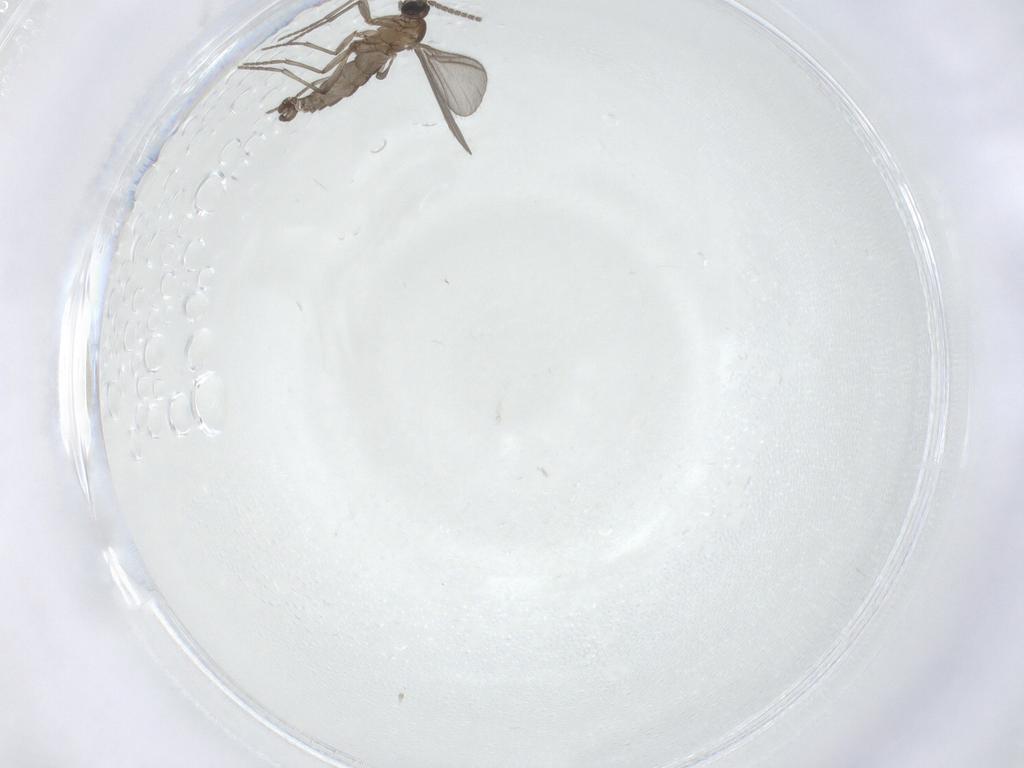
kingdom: Animalia
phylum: Arthropoda
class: Insecta
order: Diptera
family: Sciaridae
